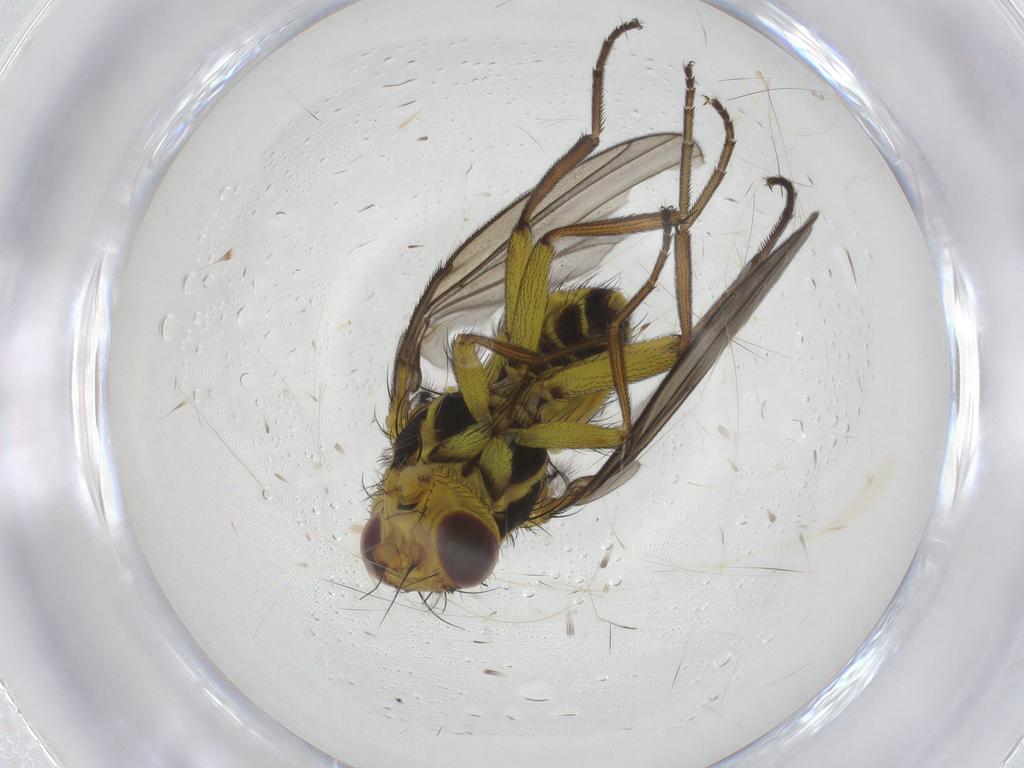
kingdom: Animalia
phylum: Arthropoda
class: Insecta
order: Diptera
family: Agromyzidae
